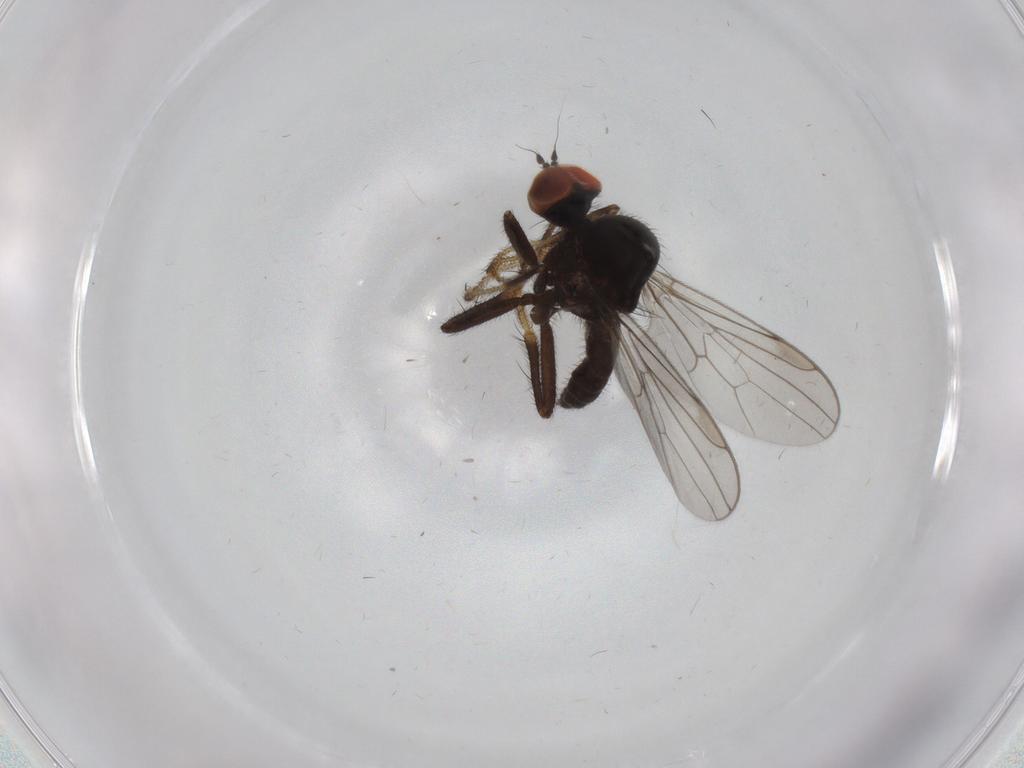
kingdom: Animalia
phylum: Arthropoda
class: Insecta
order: Diptera
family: Hybotidae
